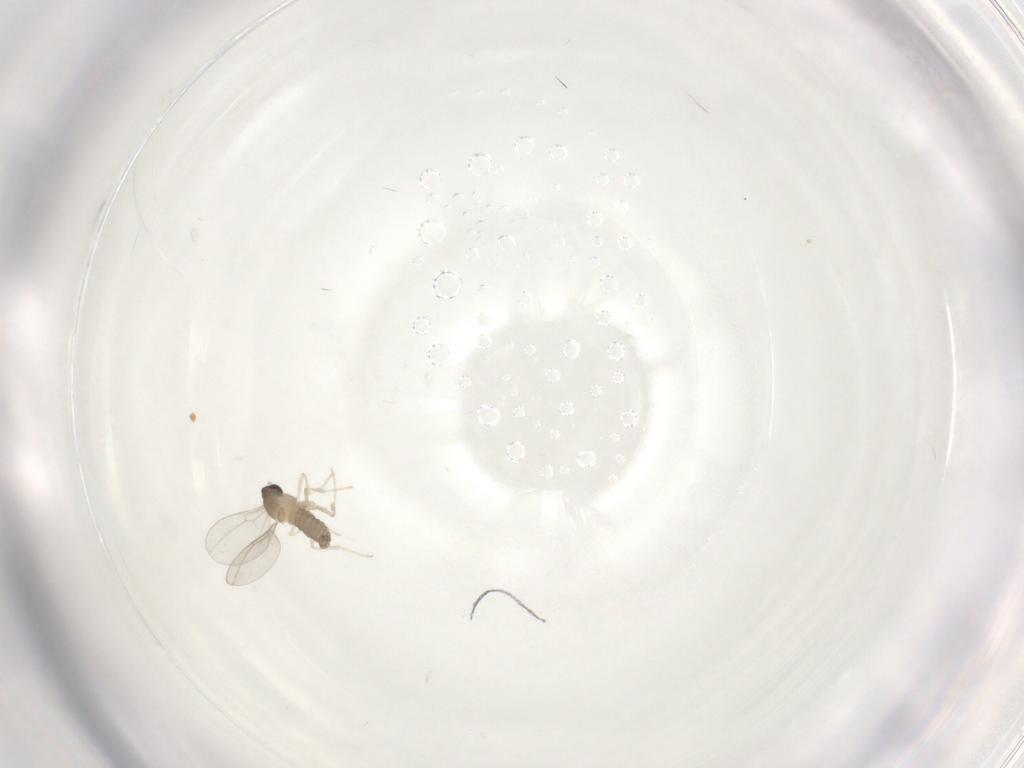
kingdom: Animalia
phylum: Arthropoda
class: Insecta
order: Diptera
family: Cecidomyiidae
